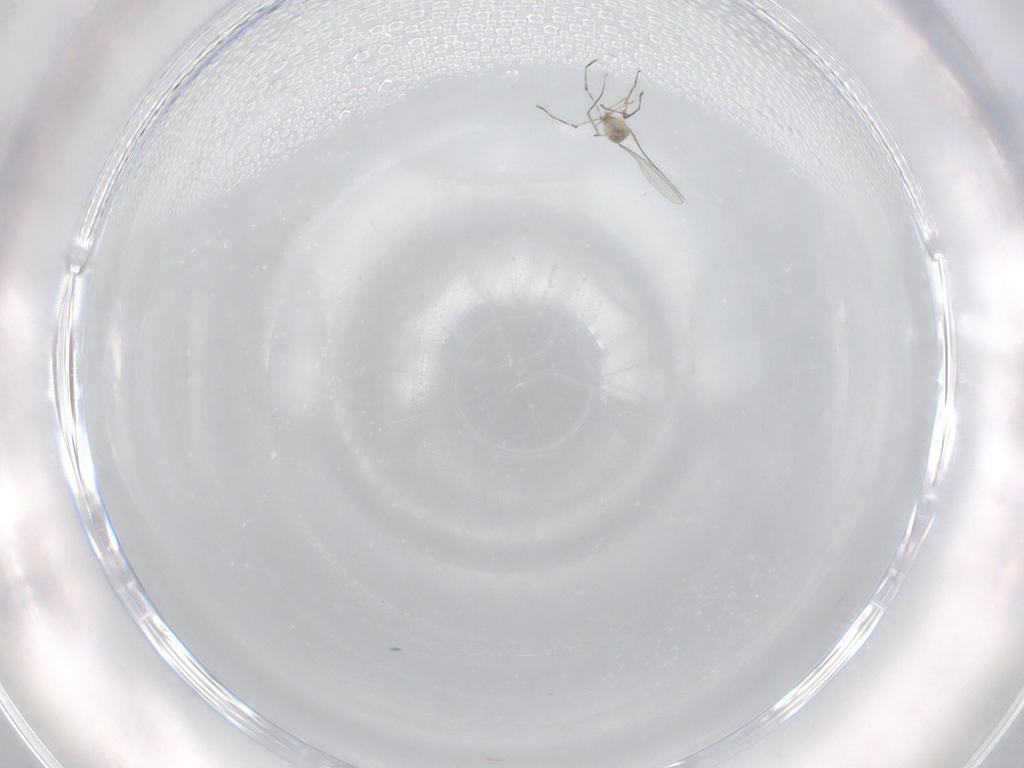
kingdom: Animalia
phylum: Arthropoda
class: Insecta
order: Diptera
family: Cecidomyiidae
